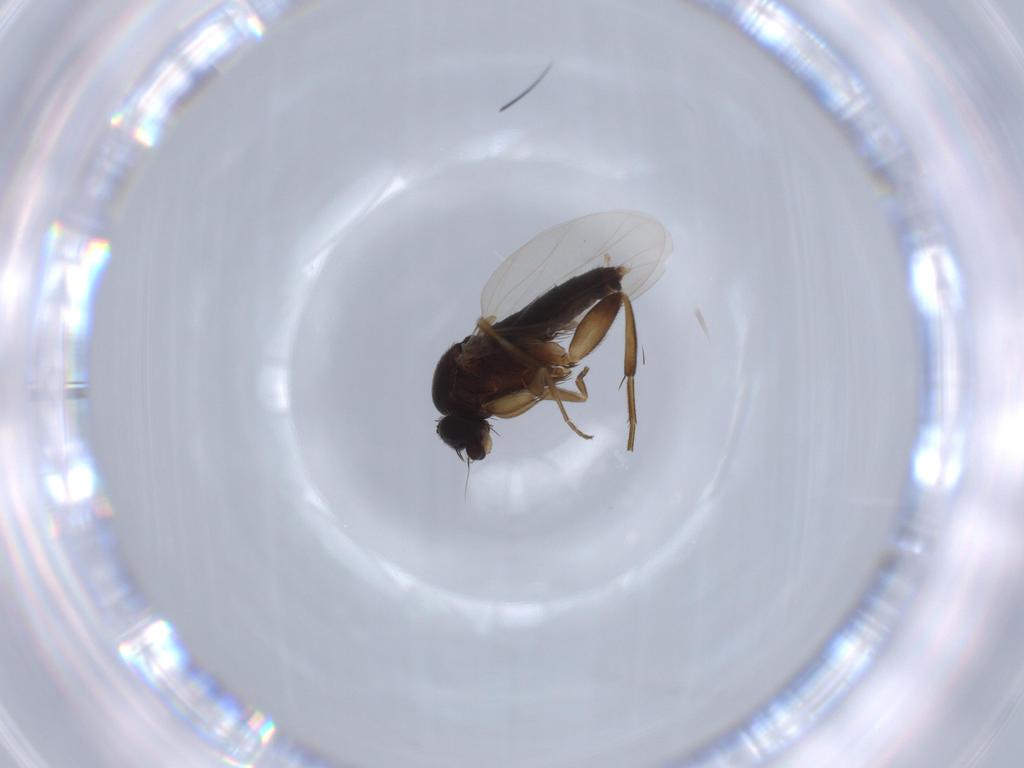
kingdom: Animalia
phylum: Arthropoda
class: Insecta
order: Diptera
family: Phoridae
